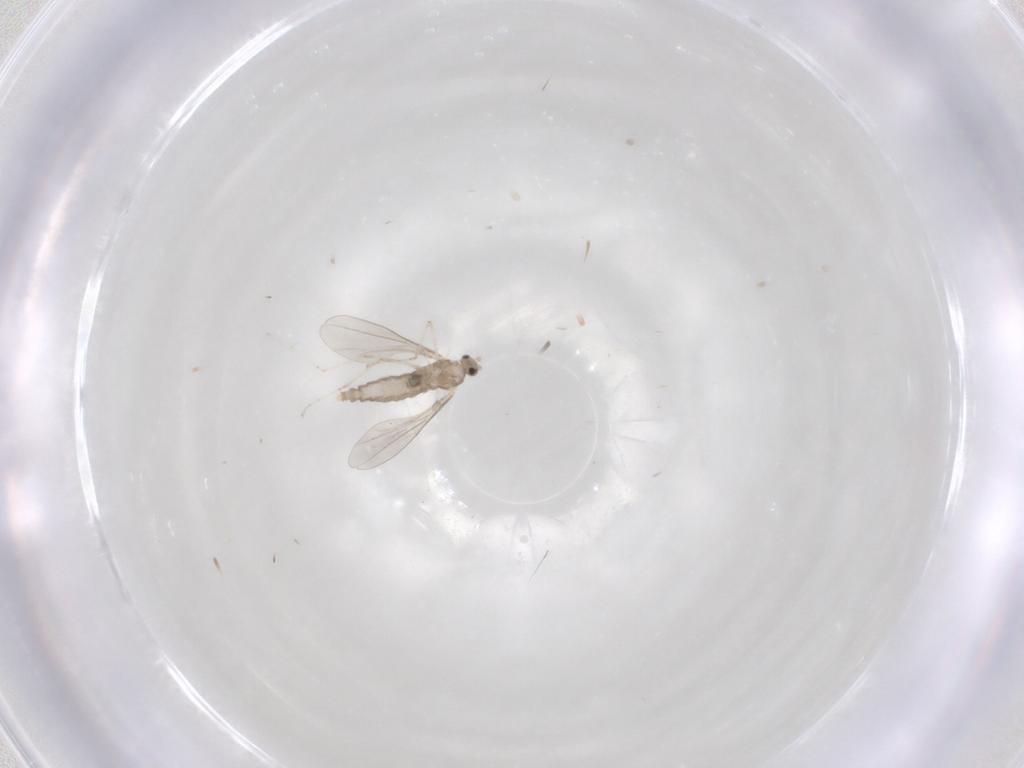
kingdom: Animalia
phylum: Arthropoda
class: Insecta
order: Diptera
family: Cecidomyiidae
